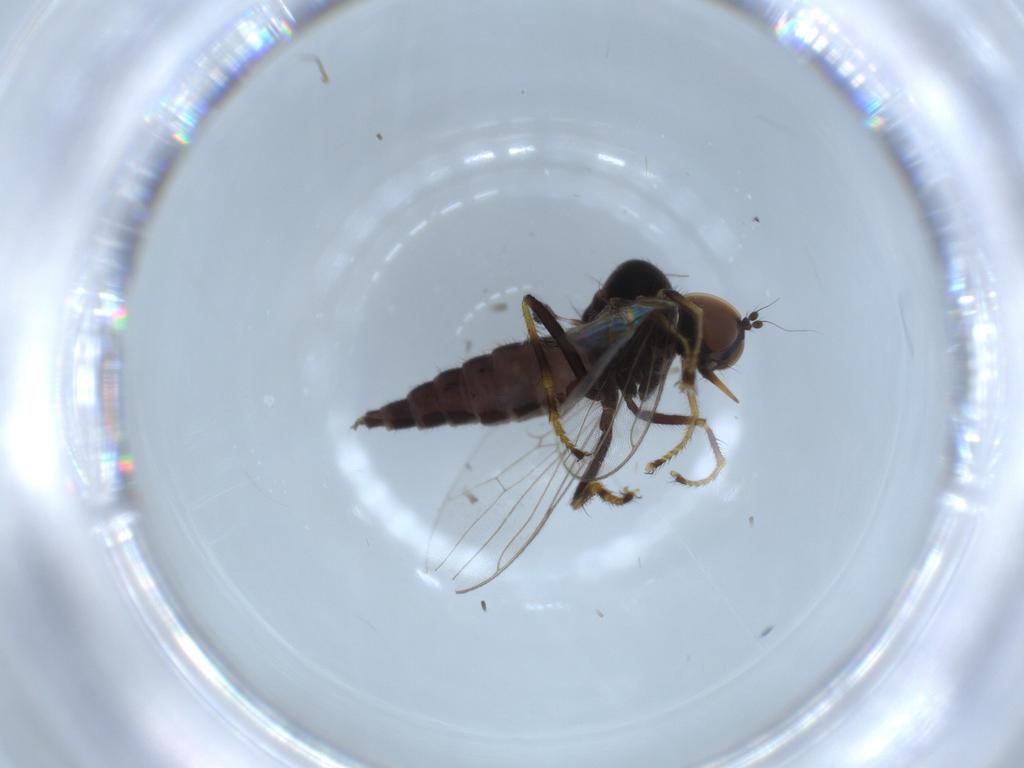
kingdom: Animalia
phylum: Arthropoda
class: Insecta
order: Diptera
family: Hybotidae
